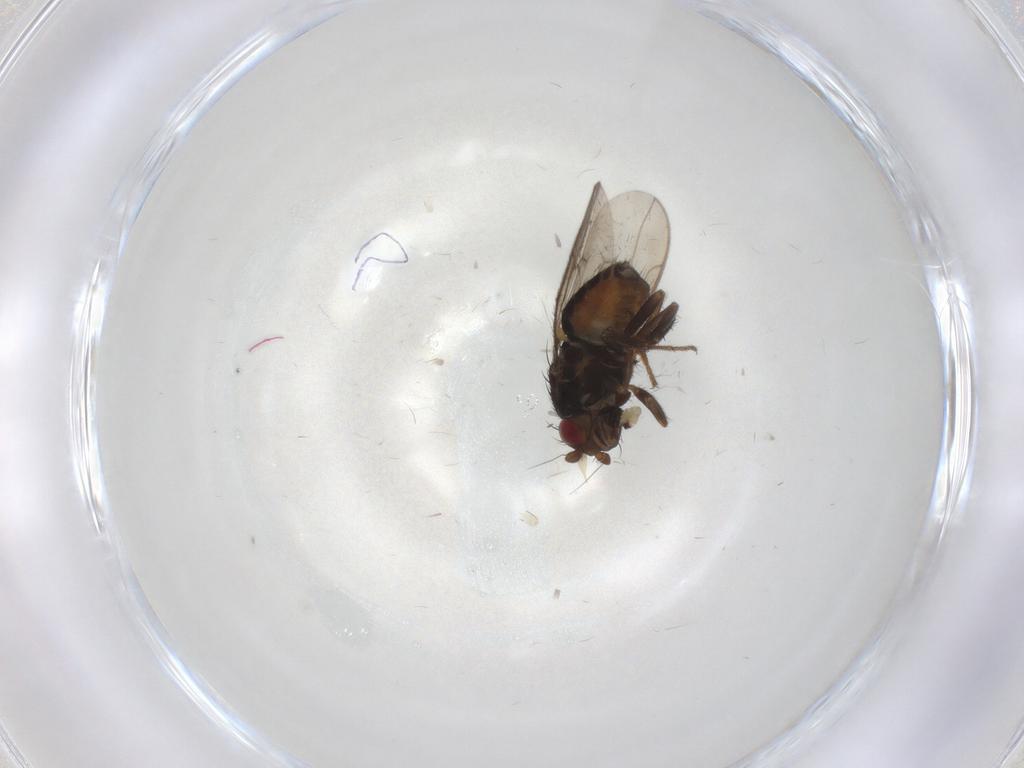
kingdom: Animalia
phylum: Arthropoda
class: Insecta
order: Diptera
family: Sphaeroceridae
